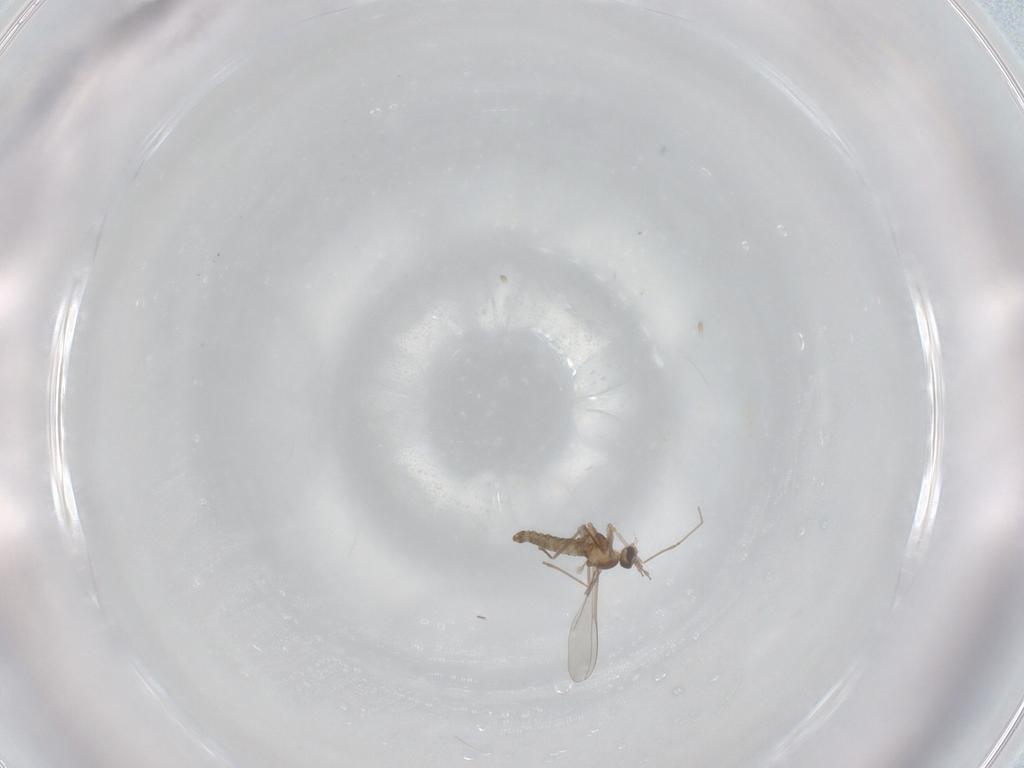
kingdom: Animalia
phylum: Arthropoda
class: Insecta
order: Diptera
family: Cecidomyiidae
